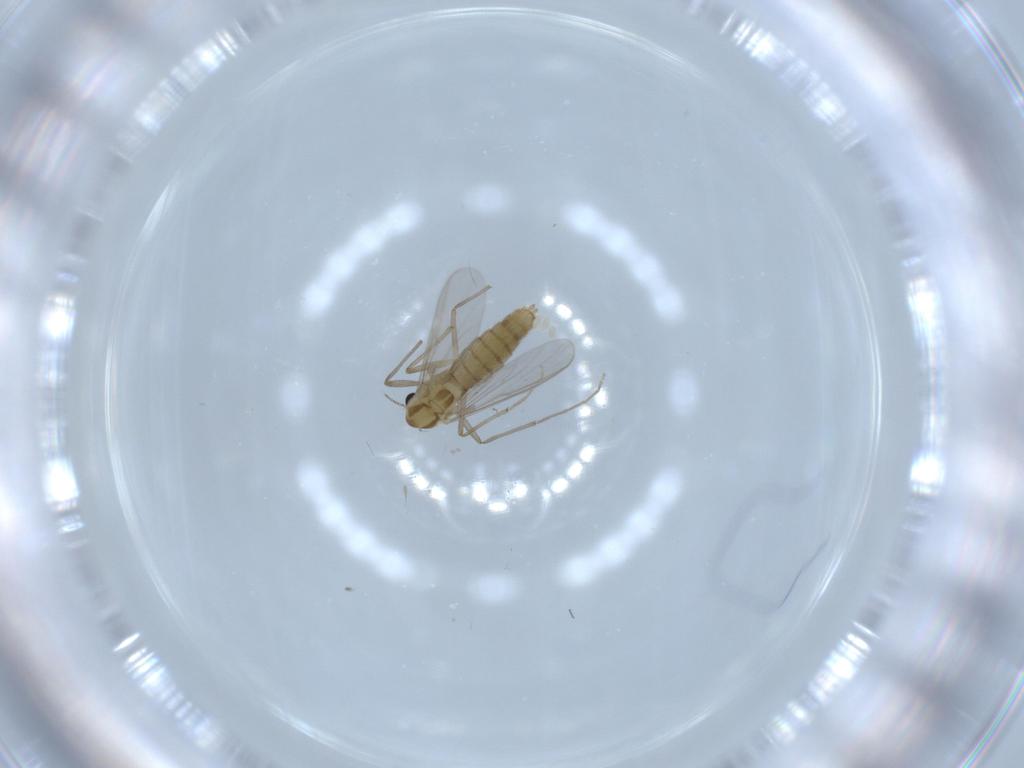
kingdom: Animalia
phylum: Arthropoda
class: Insecta
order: Diptera
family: Chironomidae
